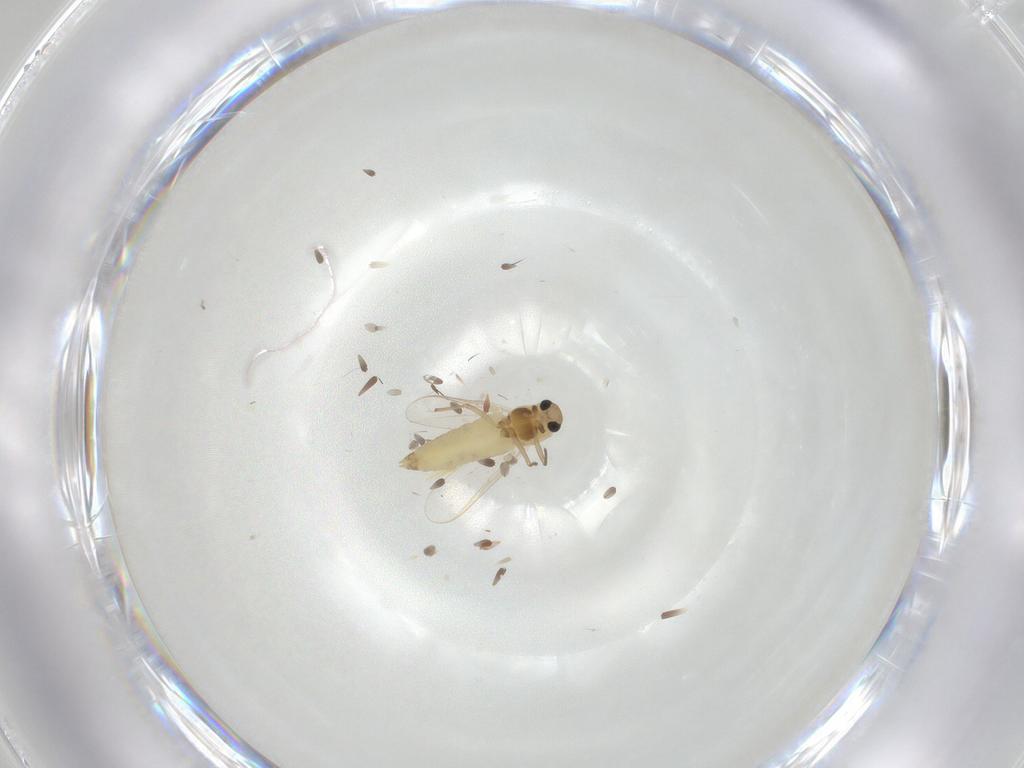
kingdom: Animalia
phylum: Arthropoda
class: Insecta
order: Diptera
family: Chironomidae
